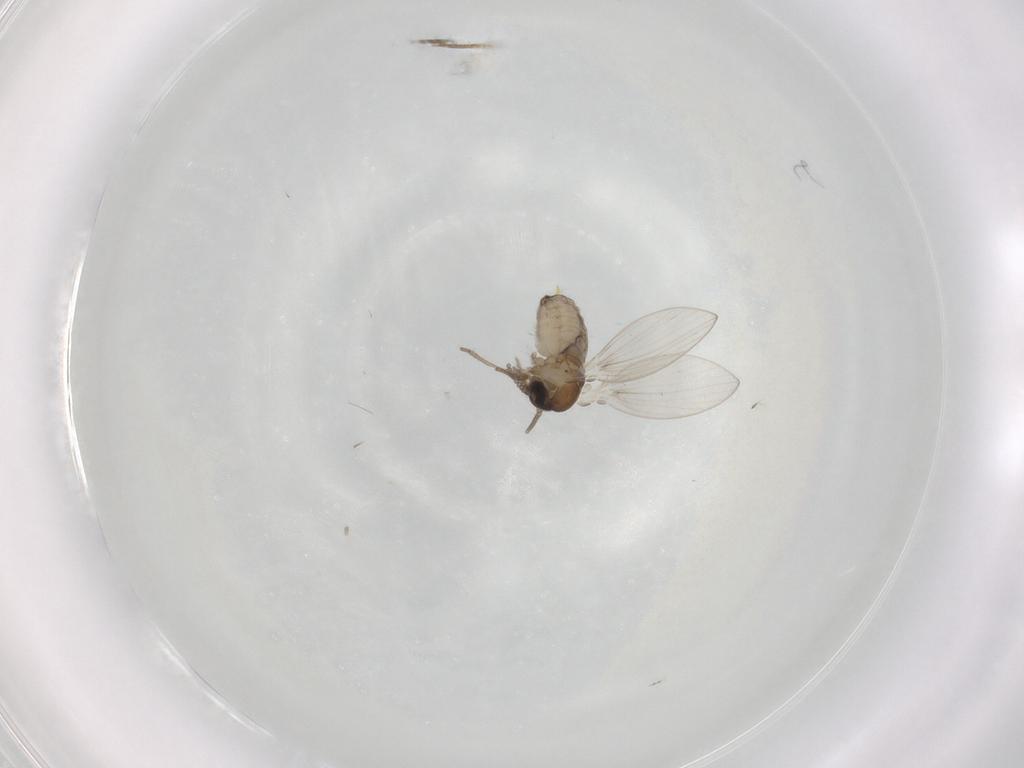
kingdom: Animalia
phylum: Arthropoda
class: Insecta
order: Diptera
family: Psychodidae
